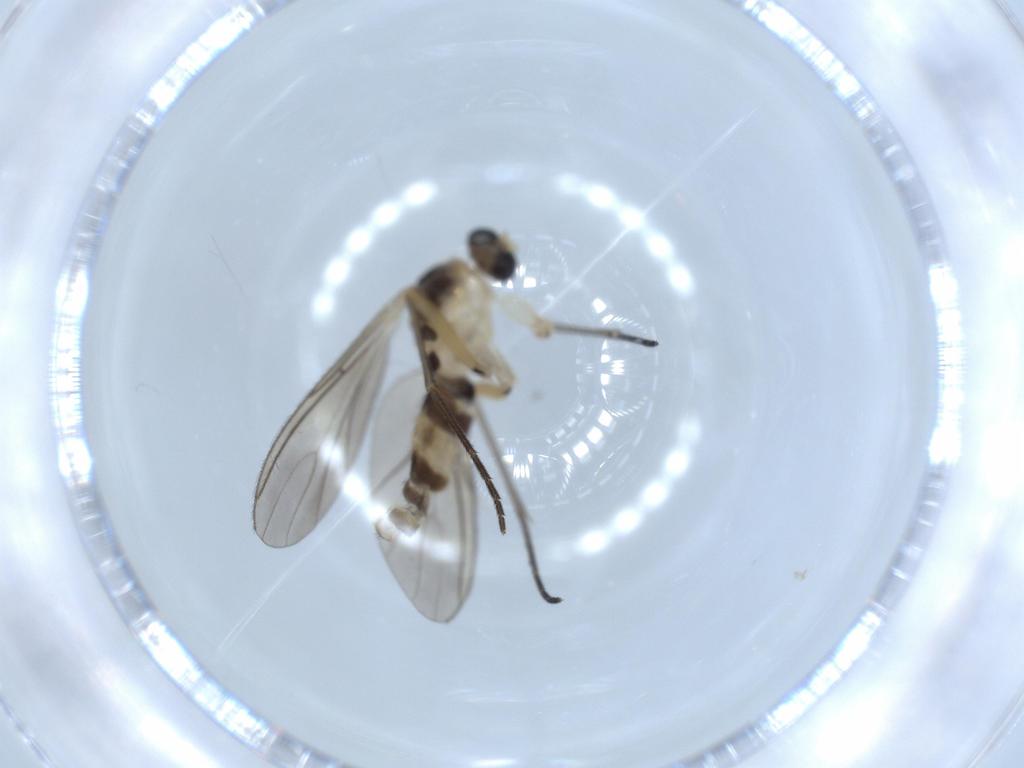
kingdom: Animalia
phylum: Arthropoda
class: Insecta
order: Diptera
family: Sciaridae
